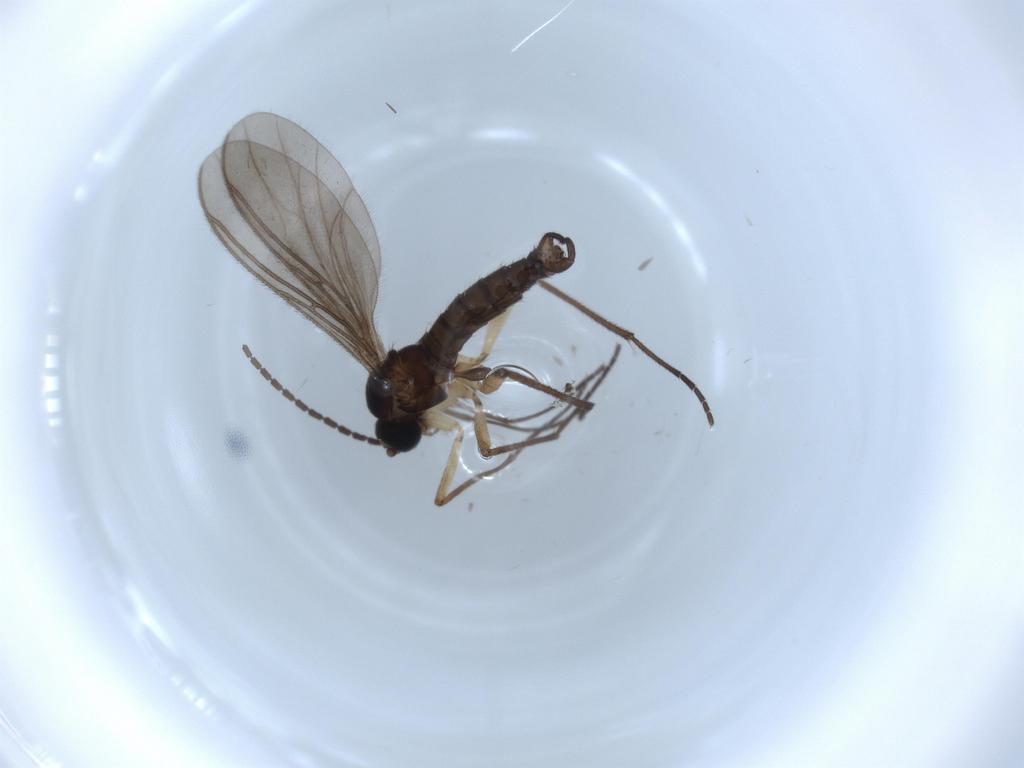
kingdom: Animalia
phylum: Arthropoda
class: Insecta
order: Diptera
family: Sciaridae
